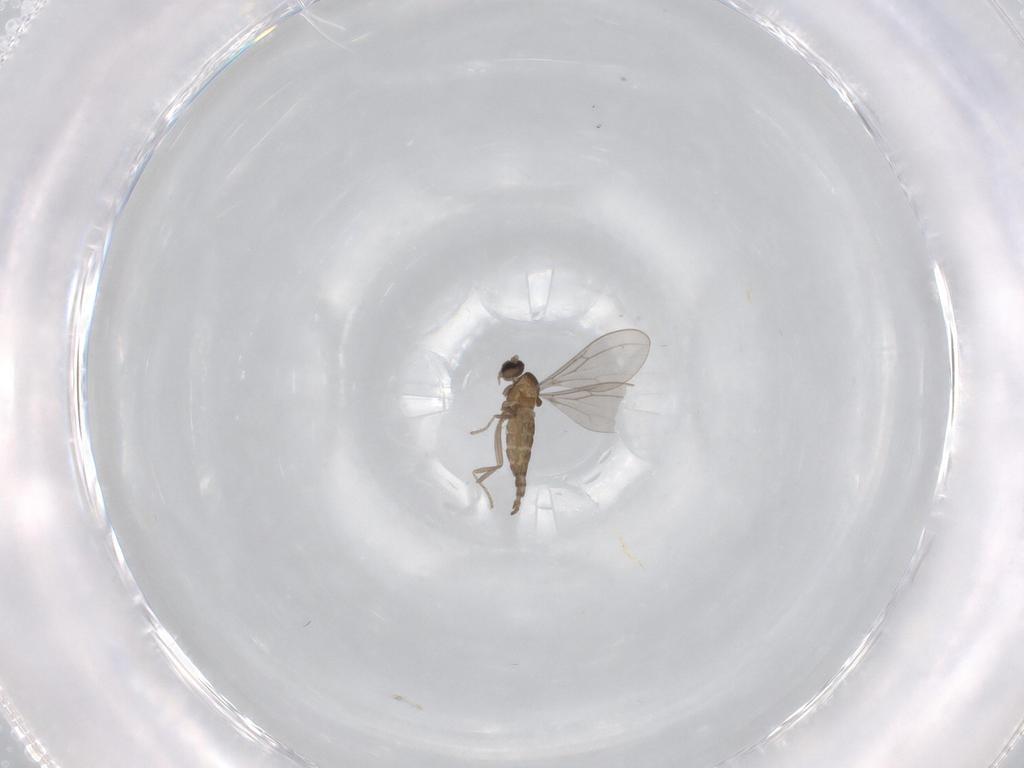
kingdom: Animalia
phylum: Arthropoda
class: Insecta
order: Diptera
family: Cecidomyiidae
